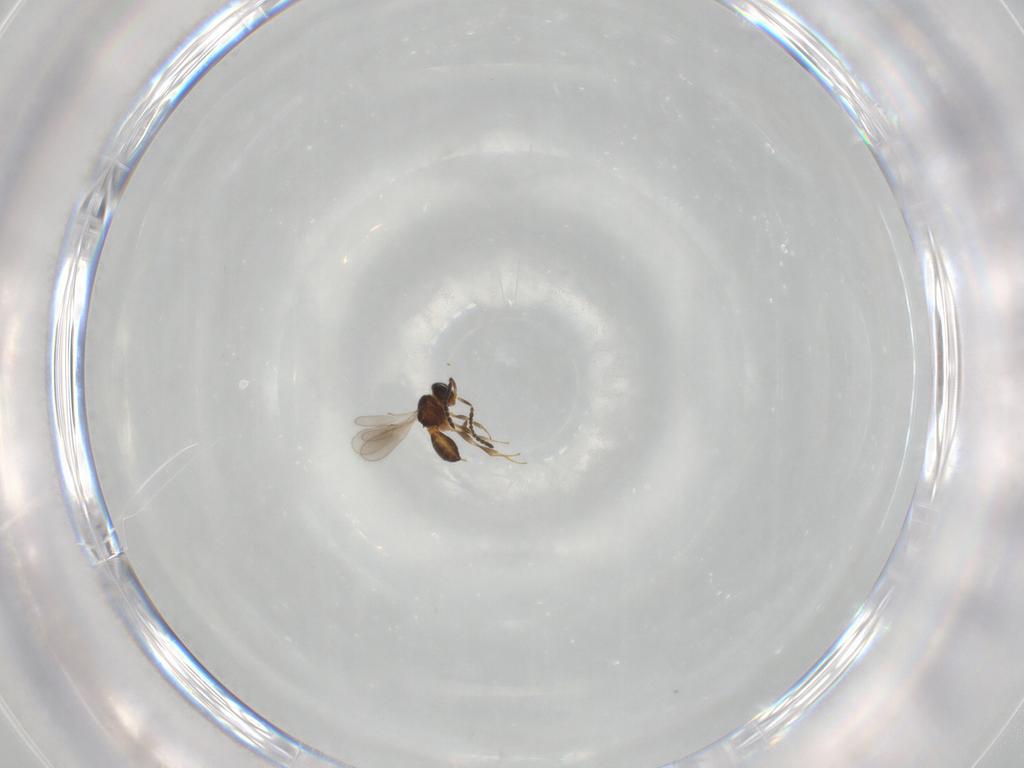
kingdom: Animalia
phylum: Arthropoda
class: Insecta
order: Hymenoptera
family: Scelionidae
